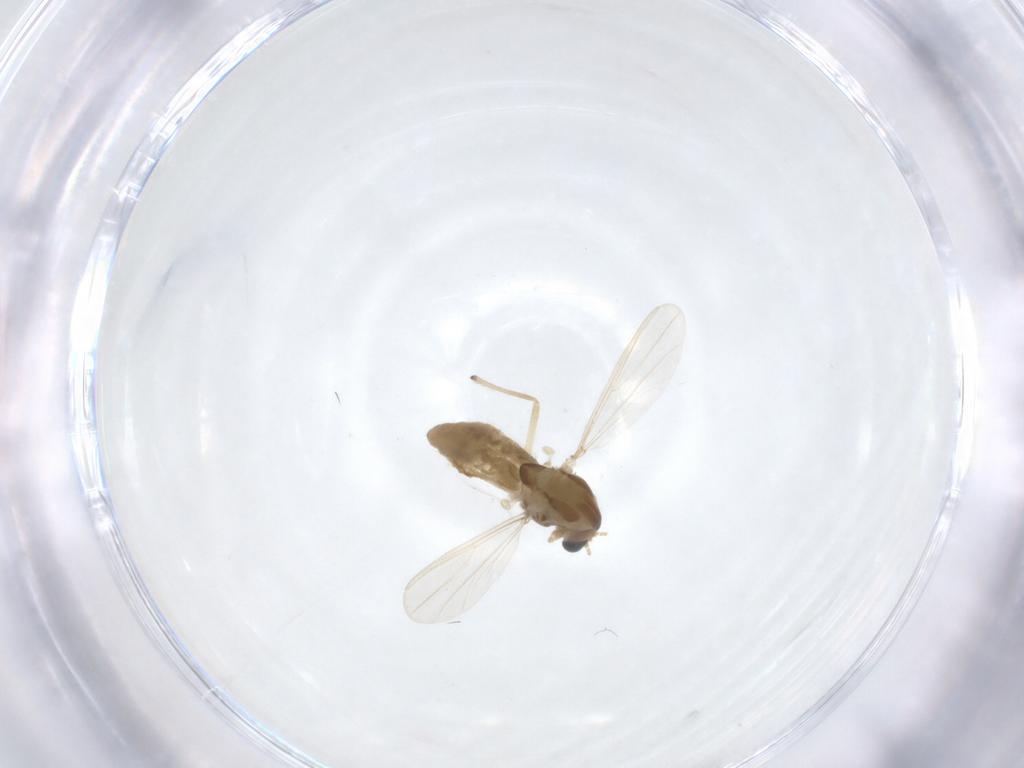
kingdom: Animalia
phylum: Arthropoda
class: Insecta
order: Diptera
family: Chironomidae
